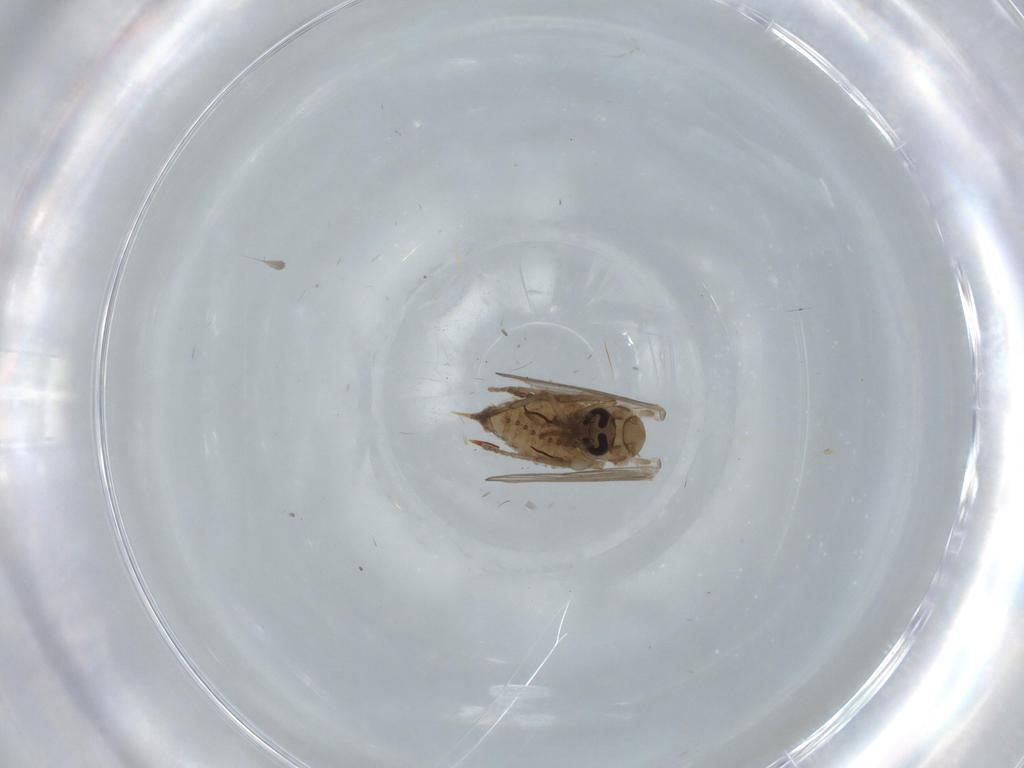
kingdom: Animalia
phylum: Arthropoda
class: Insecta
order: Diptera
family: Psychodidae
